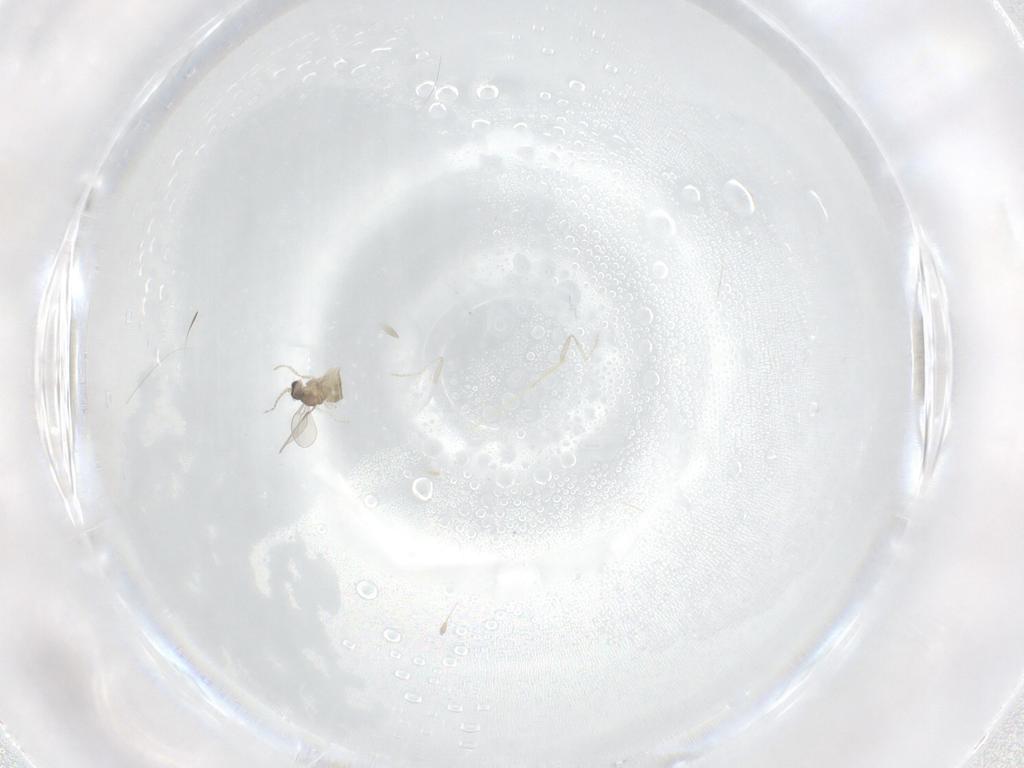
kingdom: Animalia
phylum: Arthropoda
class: Insecta
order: Diptera
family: Cecidomyiidae
